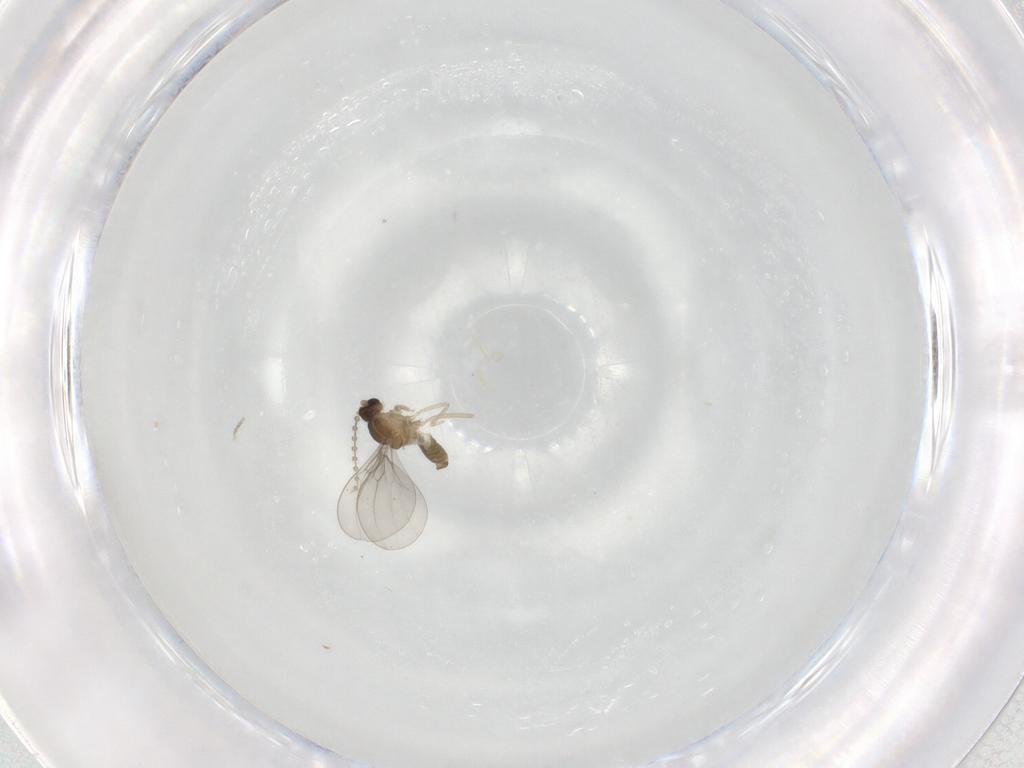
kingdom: Animalia
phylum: Arthropoda
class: Insecta
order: Diptera
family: Cecidomyiidae
